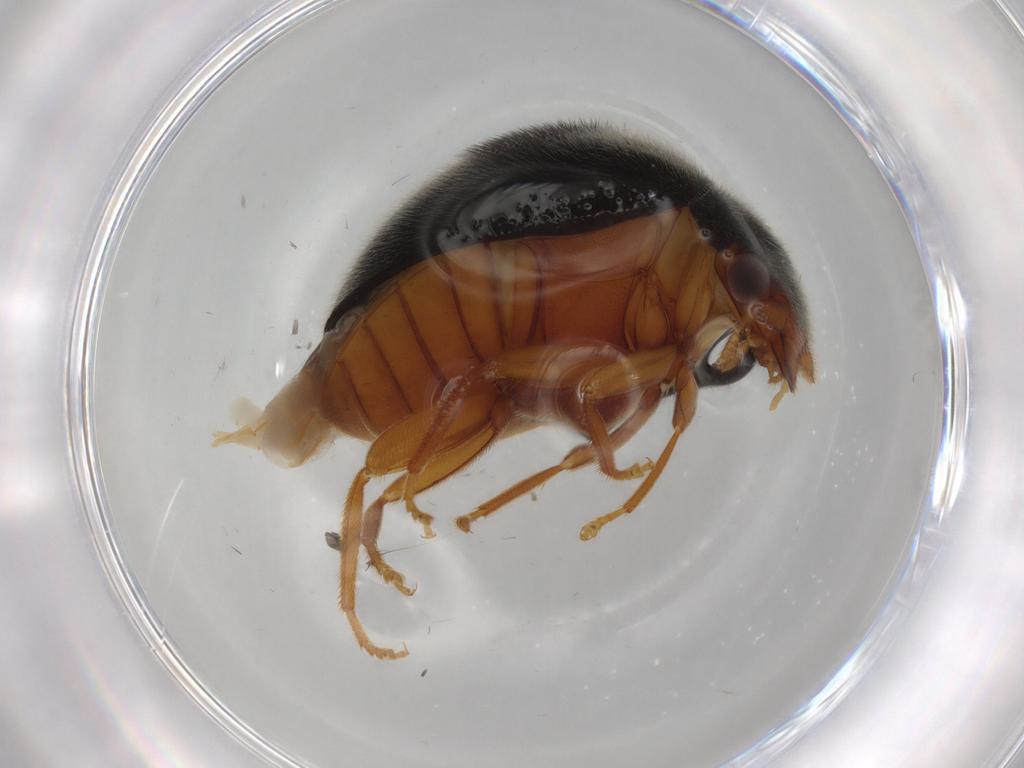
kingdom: Animalia
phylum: Arthropoda
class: Insecta
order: Coleoptera
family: Scirtidae
